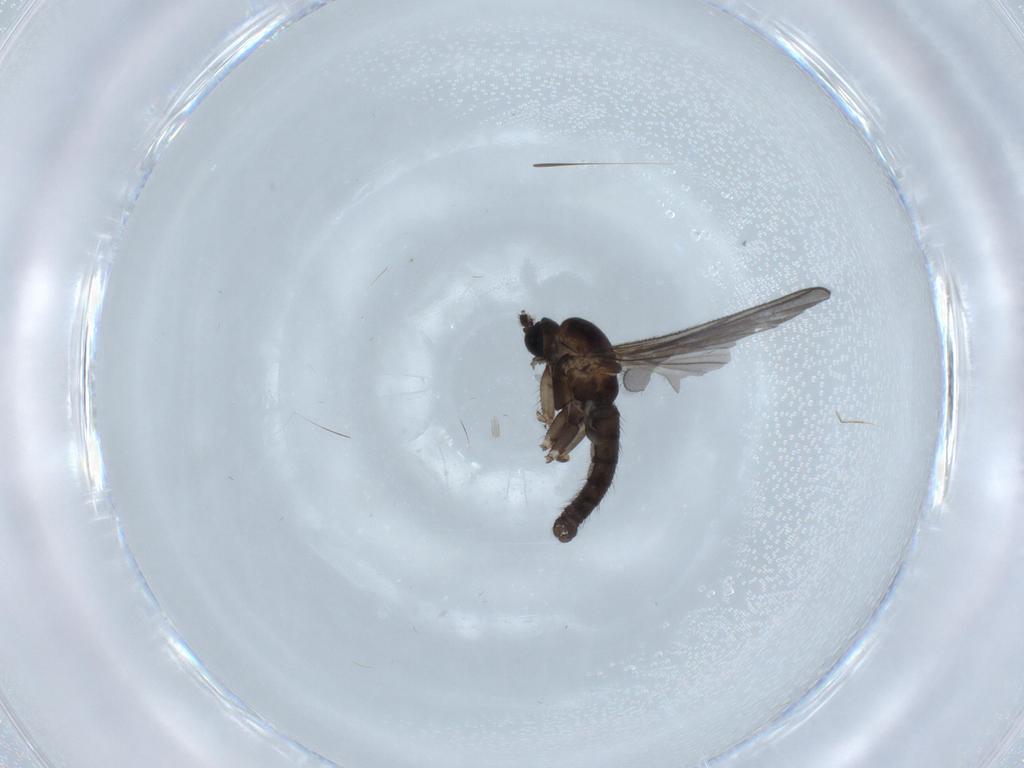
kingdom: Animalia
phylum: Arthropoda
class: Insecta
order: Diptera
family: Sciaridae
